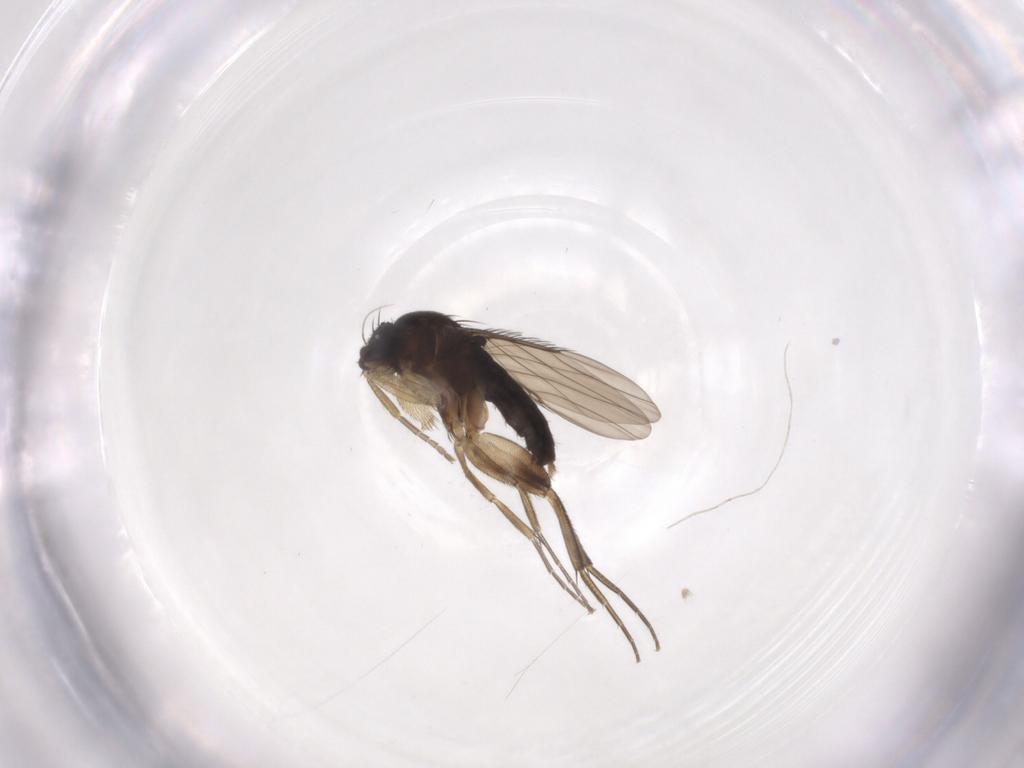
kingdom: Animalia
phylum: Arthropoda
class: Insecta
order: Diptera
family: Phoridae
